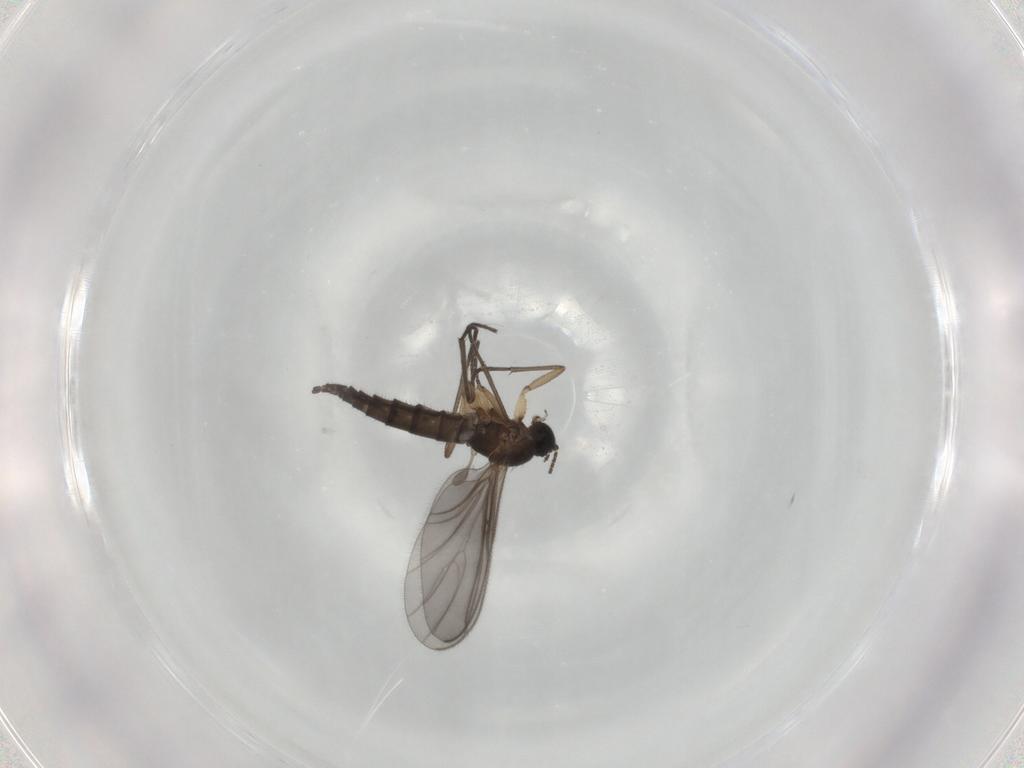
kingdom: Animalia
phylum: Arthropoda
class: Insecta
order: Diptera
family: Sciaridae
